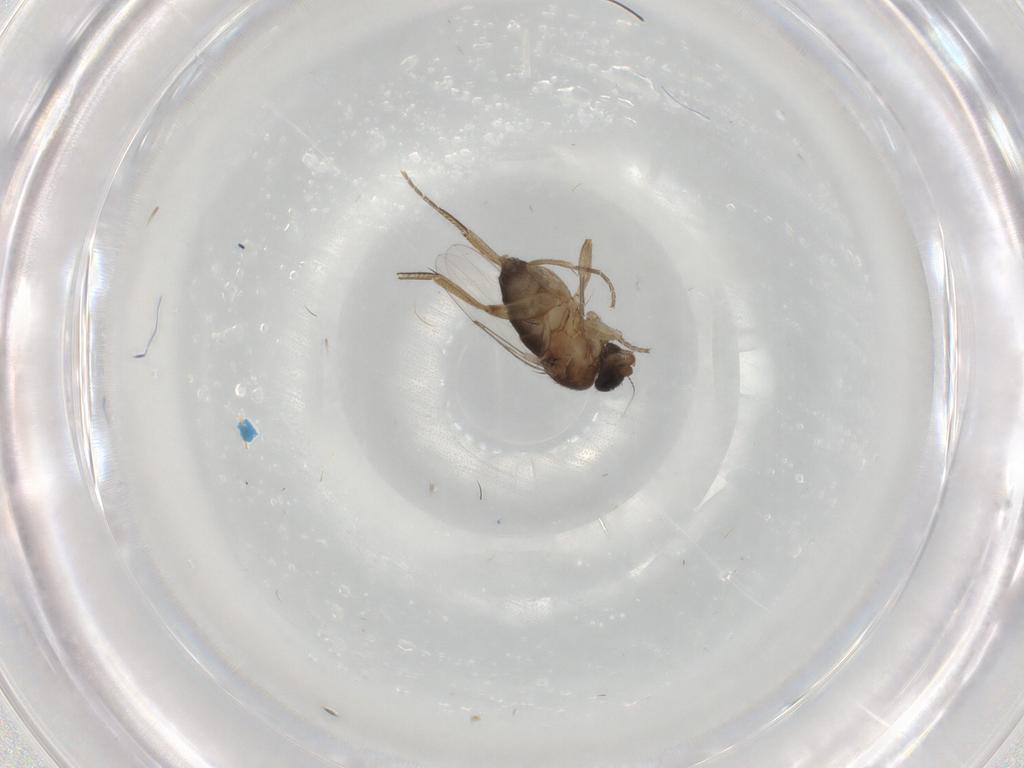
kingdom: Animalia
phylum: Arthropoda
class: Insecta
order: Diptera
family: Phoridae
